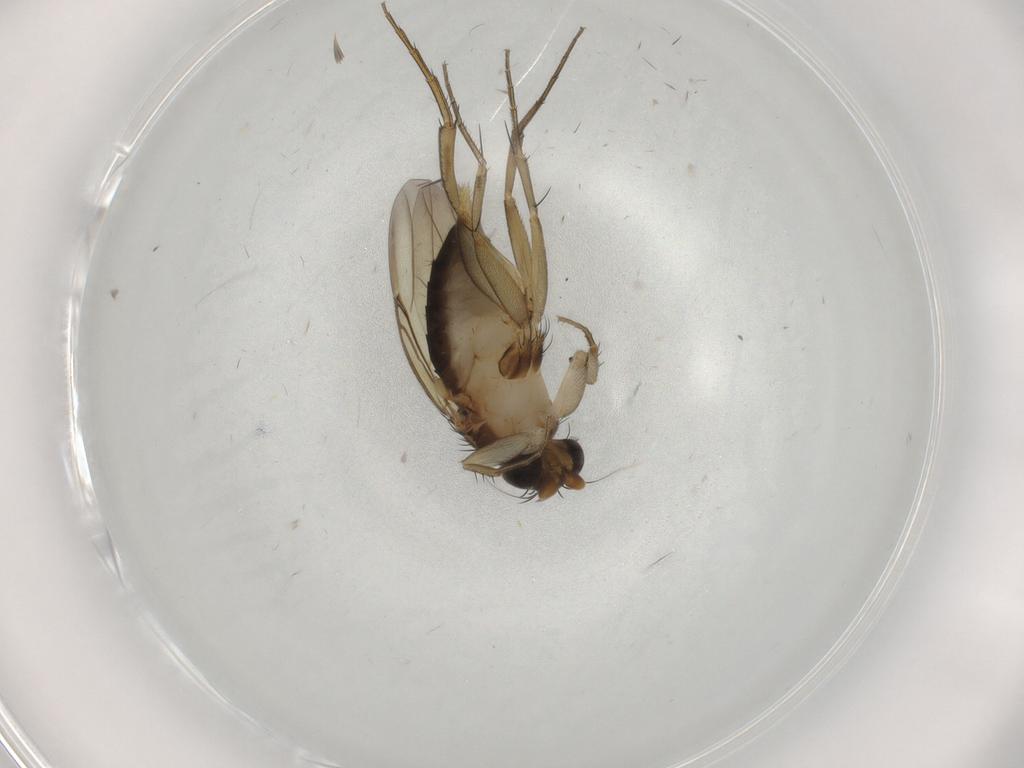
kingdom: Animalia
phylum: Arthropoda
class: Insecta
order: Diptera
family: Phoridae
